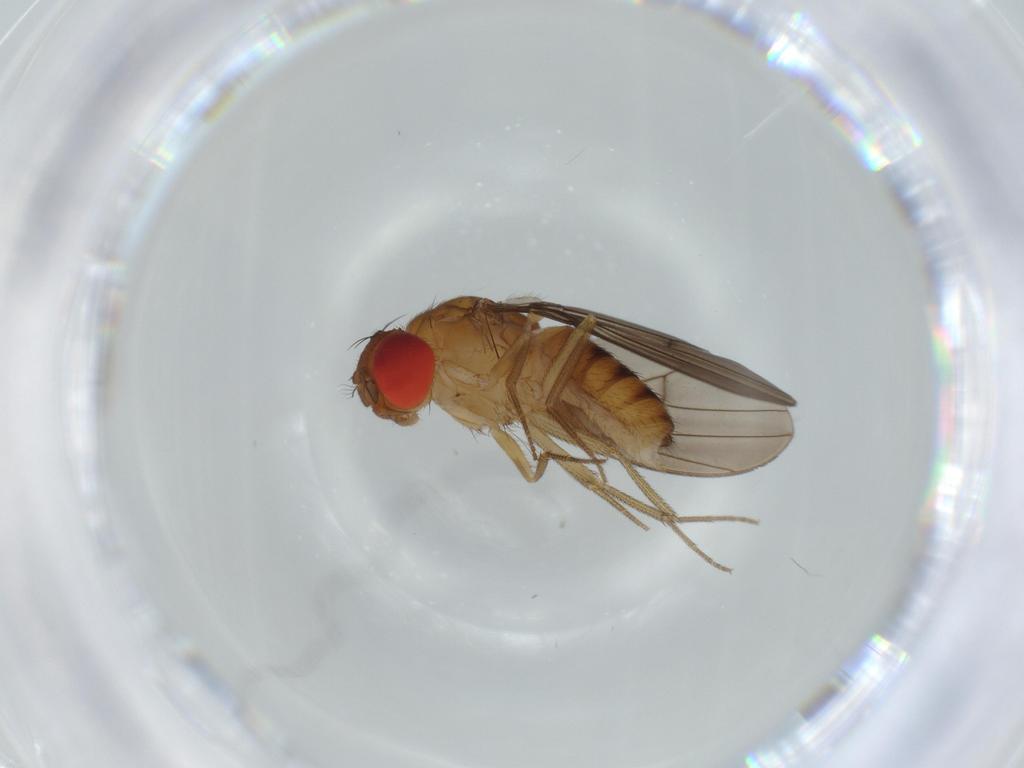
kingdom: Animalia
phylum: Arthropoda
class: Insecta
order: Diptera
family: Drosophilidae
